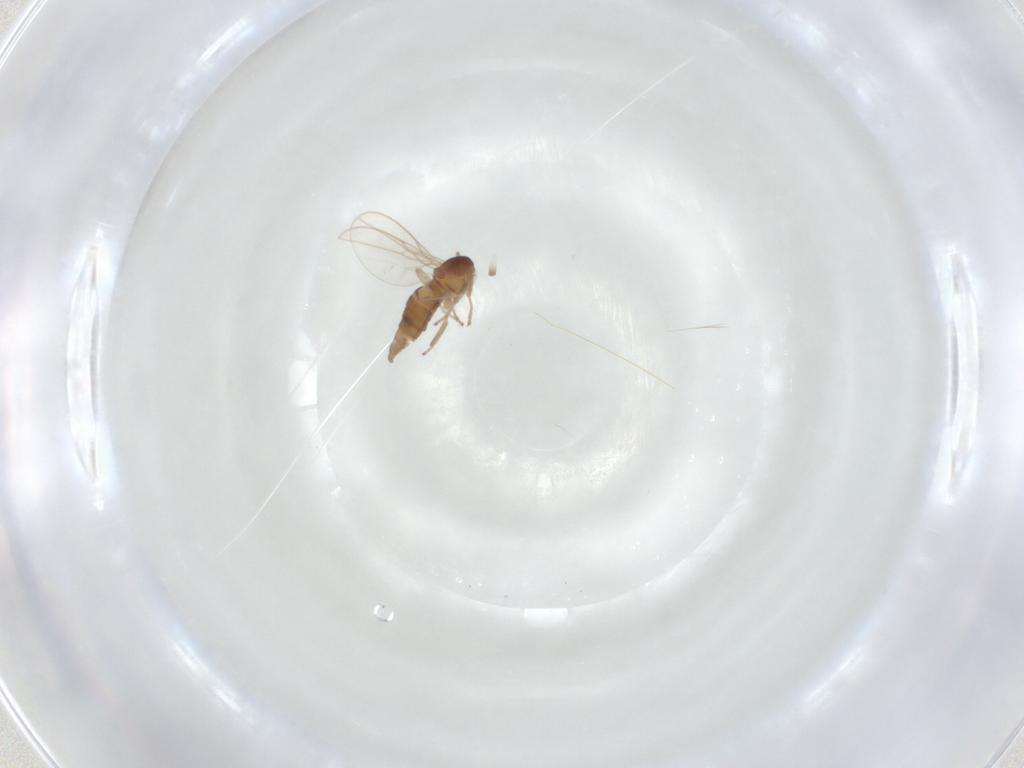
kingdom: Animalia
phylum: Arthropoda
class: Insecta
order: Diptera
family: Cecidomyiidae
